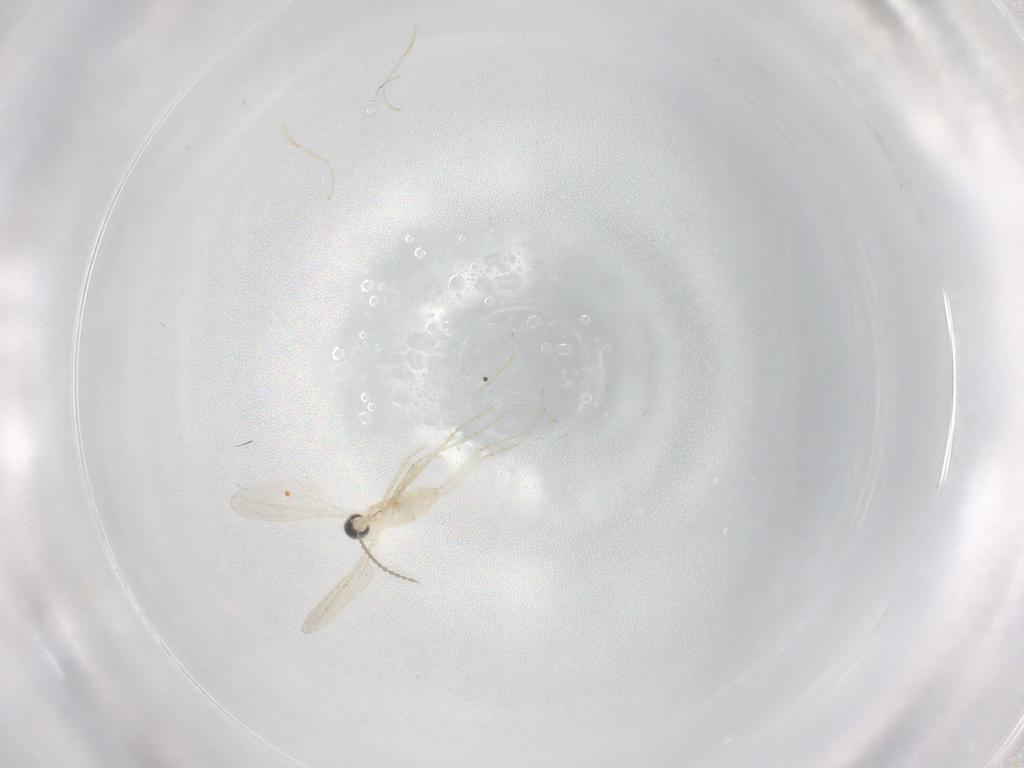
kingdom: Animalia
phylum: Arthropoda
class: Insecta
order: Diptera
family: Cecidomyiidae
